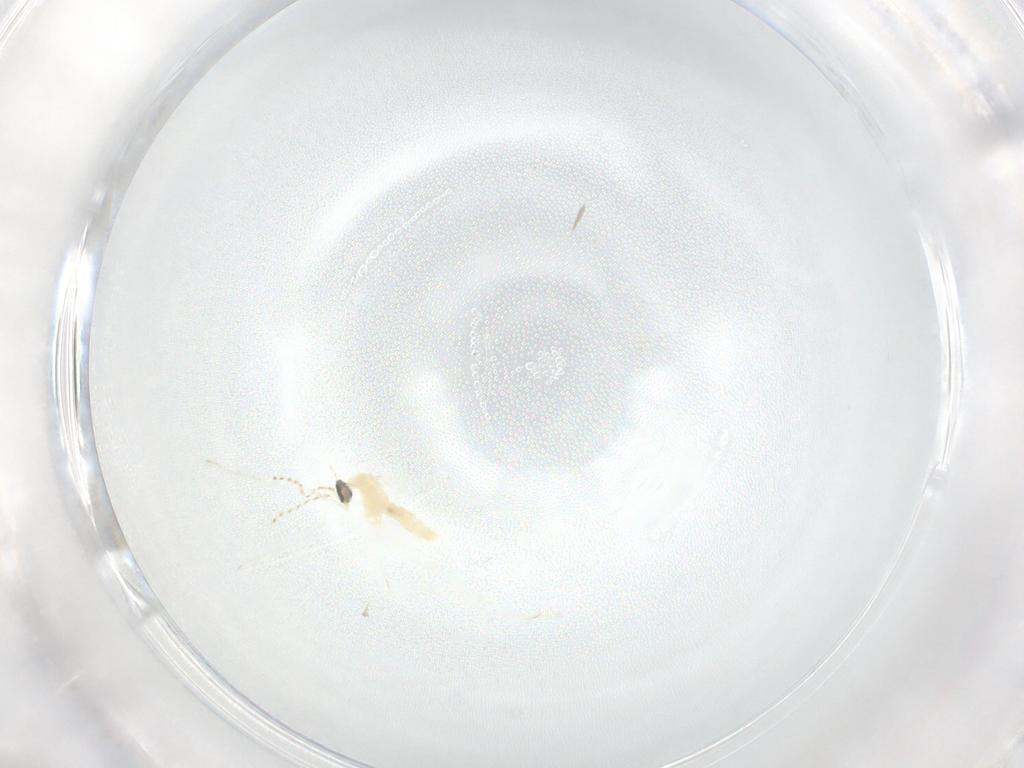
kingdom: Animalia
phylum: Arthropoda
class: Insecta
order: Diptera
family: Cecidomyiidae
